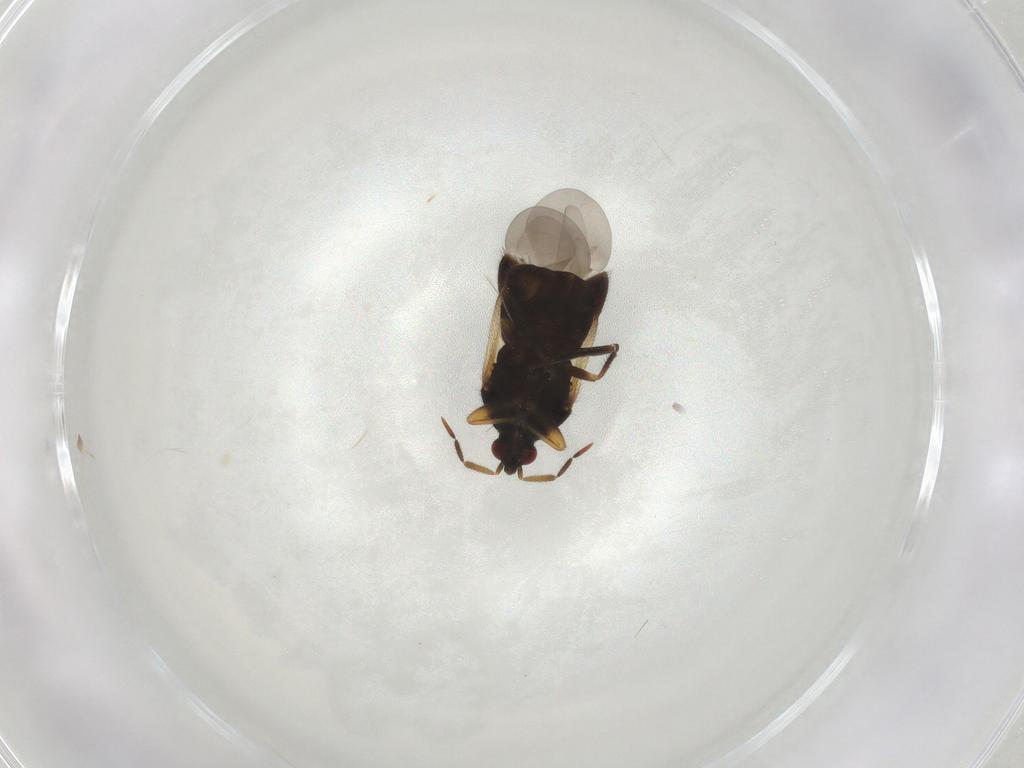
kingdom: Animalia
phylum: Arthropoda
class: Insecta
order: Hemiptera
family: Anthocoridae
